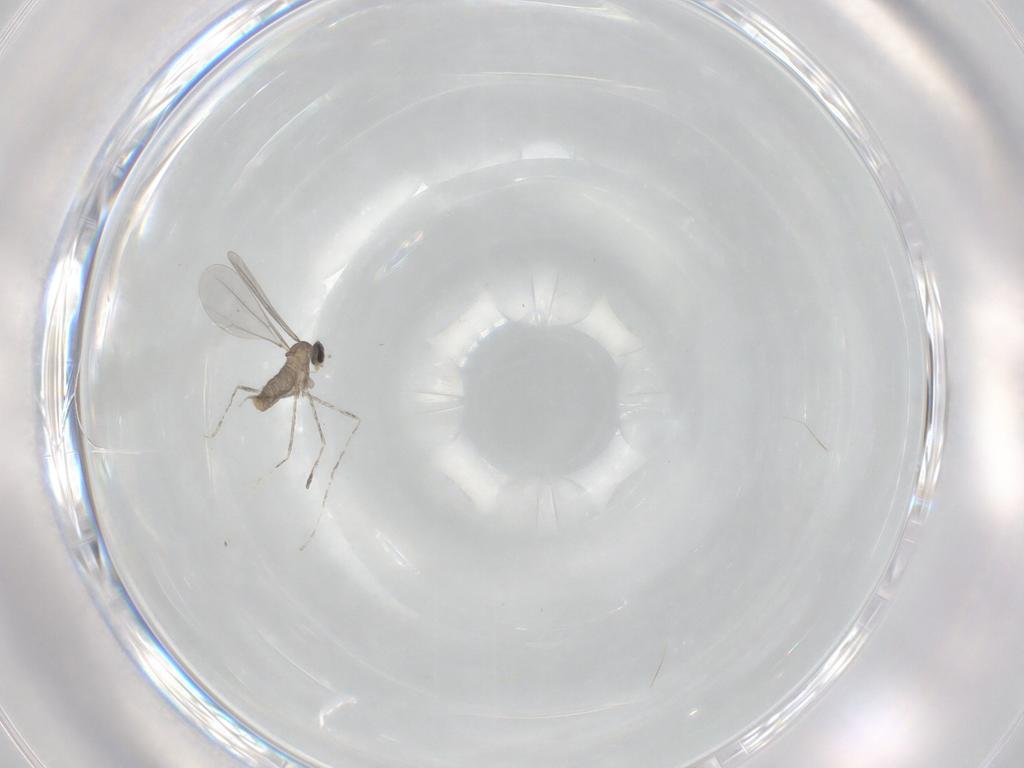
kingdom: Animalia
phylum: Arthropoda
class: Insecta
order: Diptera
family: Cecidomyiidae
